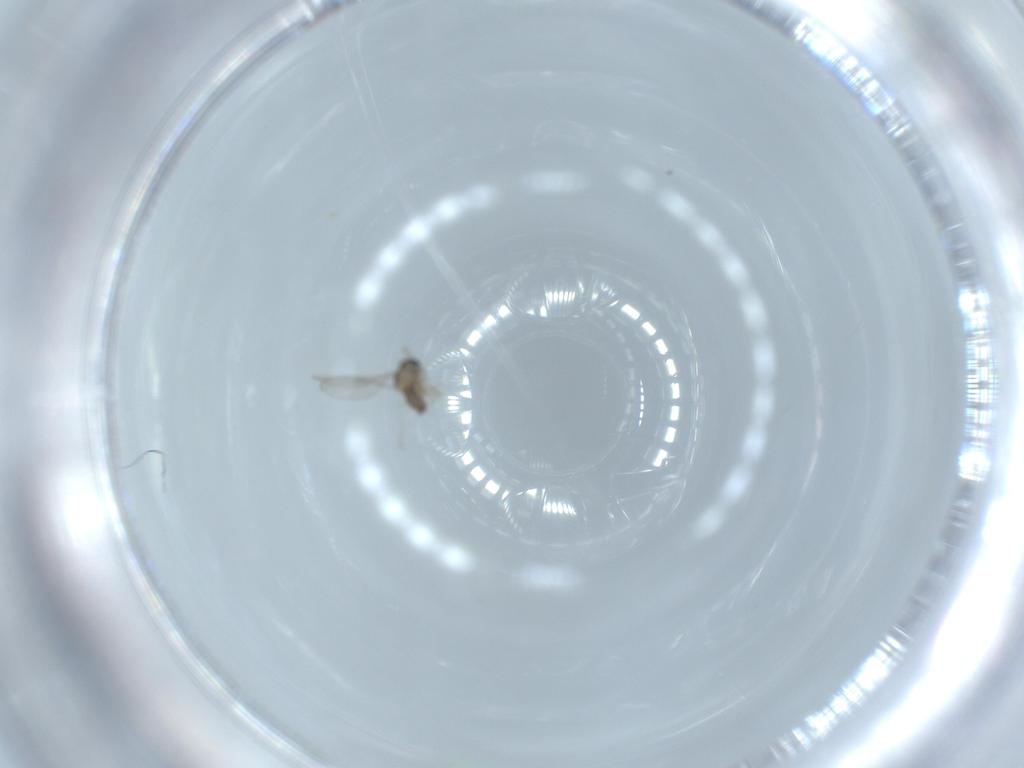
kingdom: Animalia
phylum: Arthropoda
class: Insecta
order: Diptera
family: Cecidomyiidae
